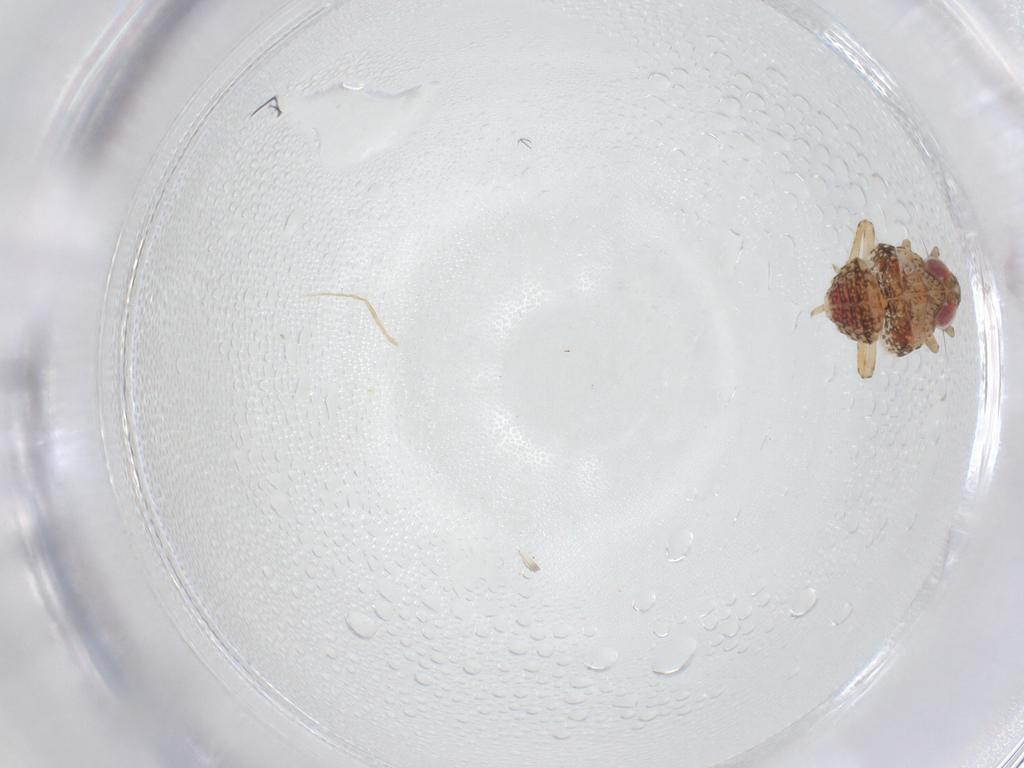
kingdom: Animalia
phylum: Arthropoda
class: Insecta
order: Hemiptera
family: Issidae
